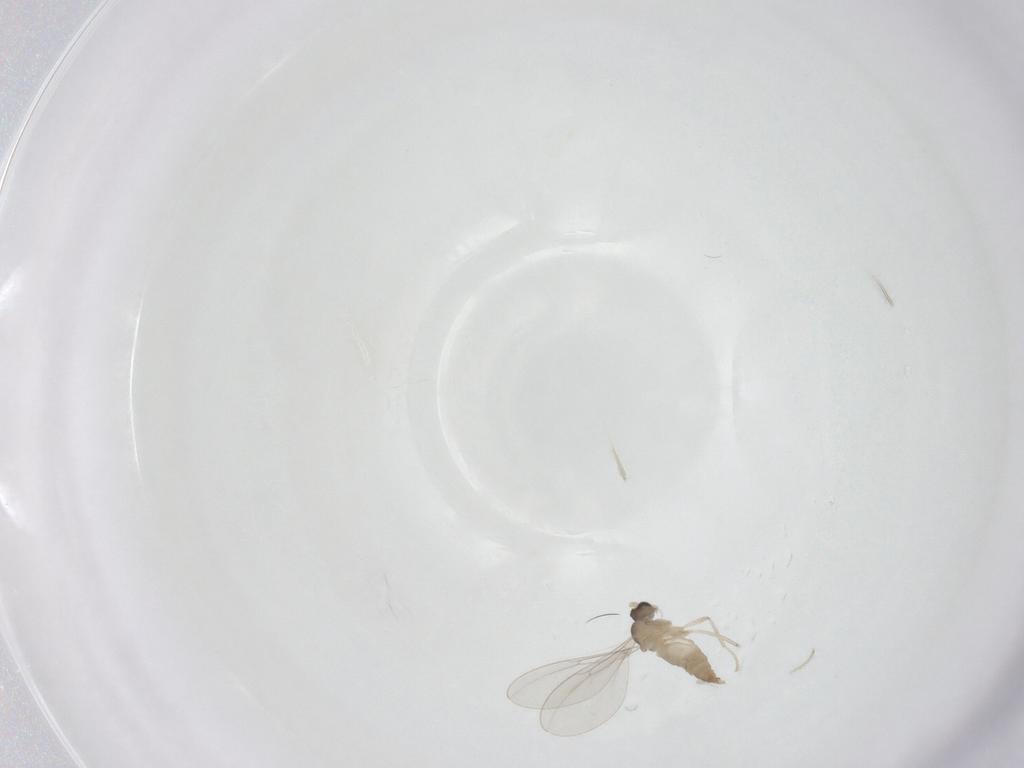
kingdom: Animalia
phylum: Arthropoda
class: Insecta
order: Diptera
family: Cecidomyiidae
